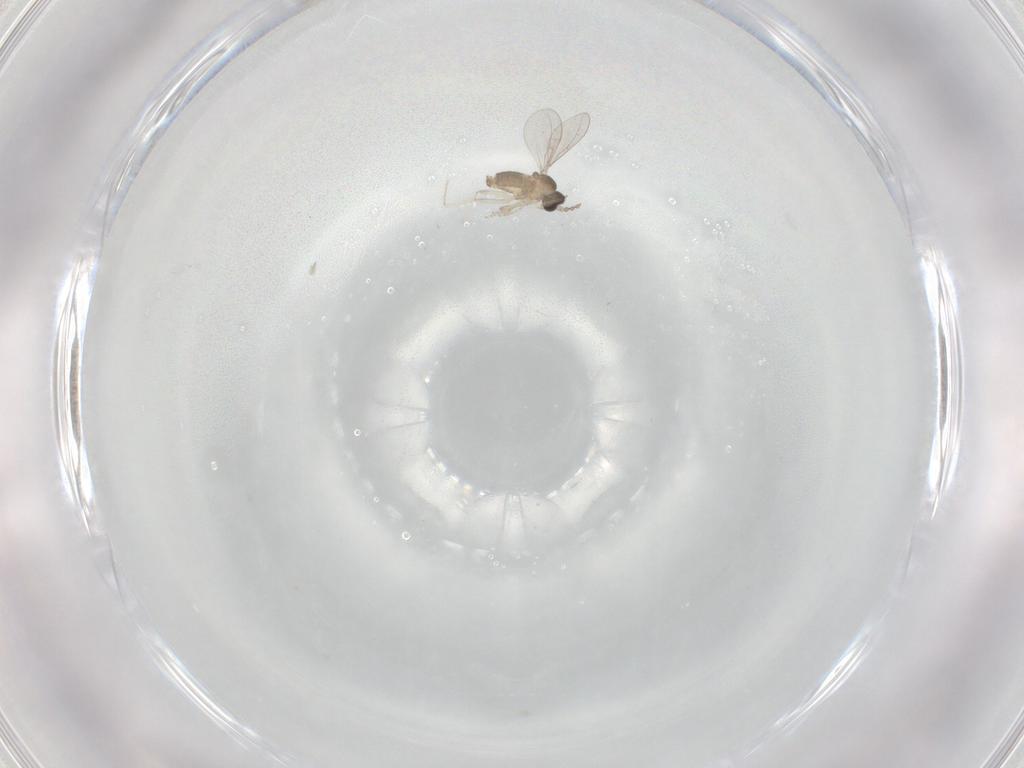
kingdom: Animalia
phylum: Arthropoda
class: Insecta
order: Diptera
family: Cecidomyiidae
